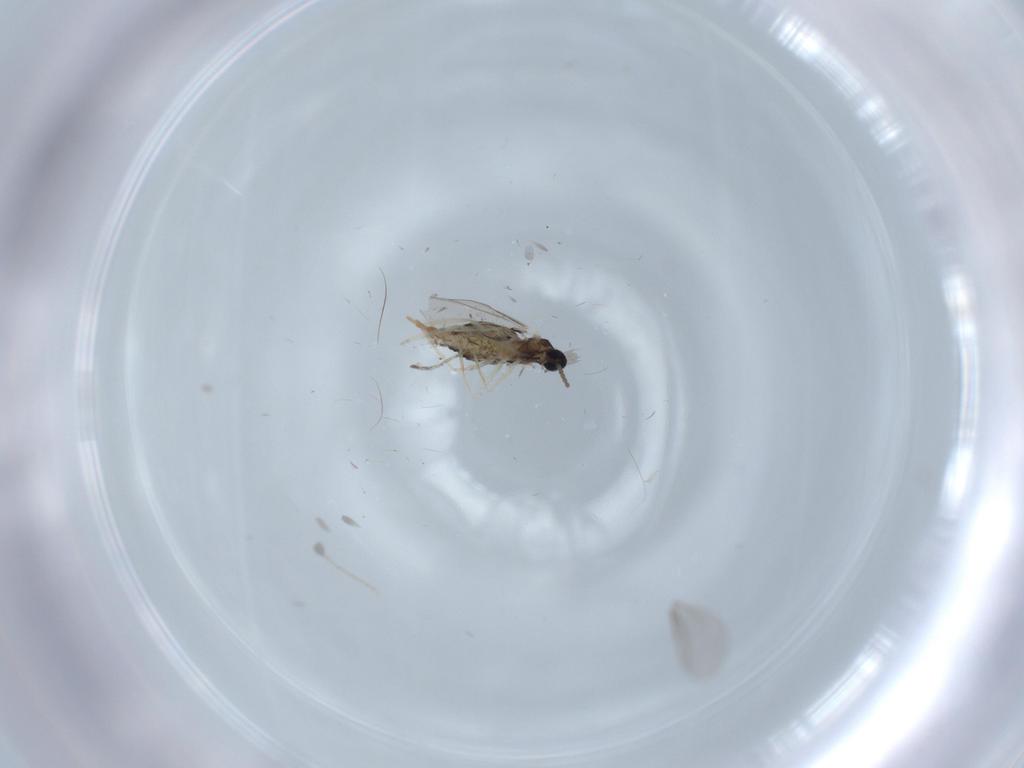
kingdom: Animalia
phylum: Arthropoda
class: Insecta
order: Diptera
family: Cecidomyiidae
